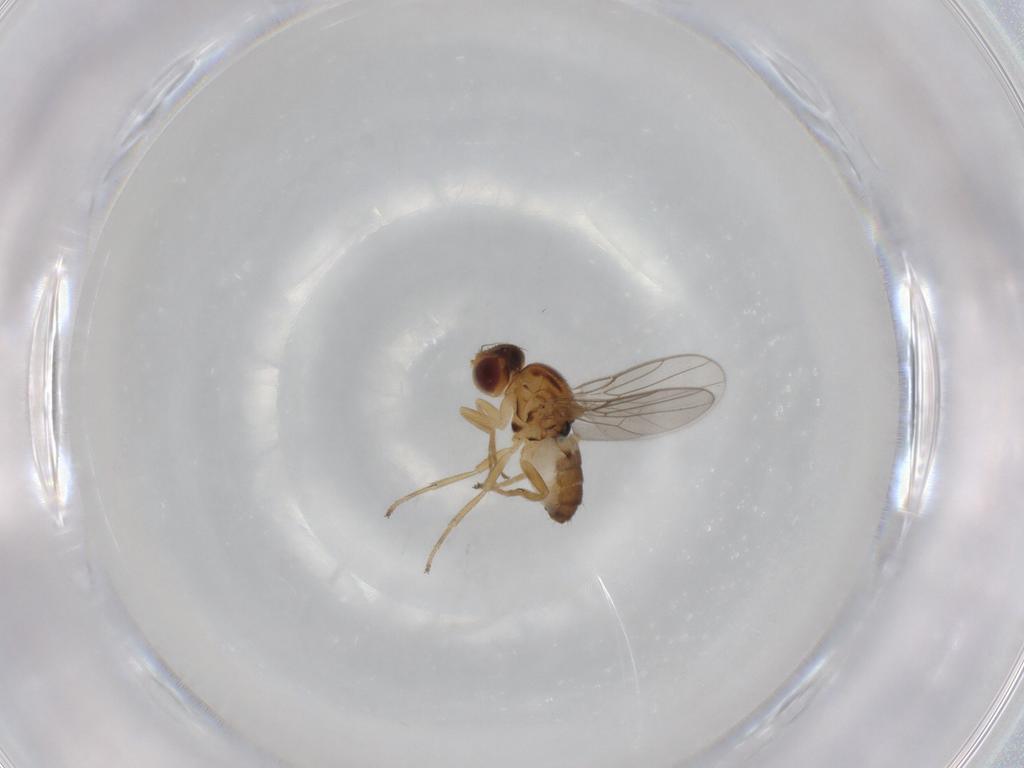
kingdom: Animalia
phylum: Arthropoda
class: Insecta
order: Diptera
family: Chloropidae
